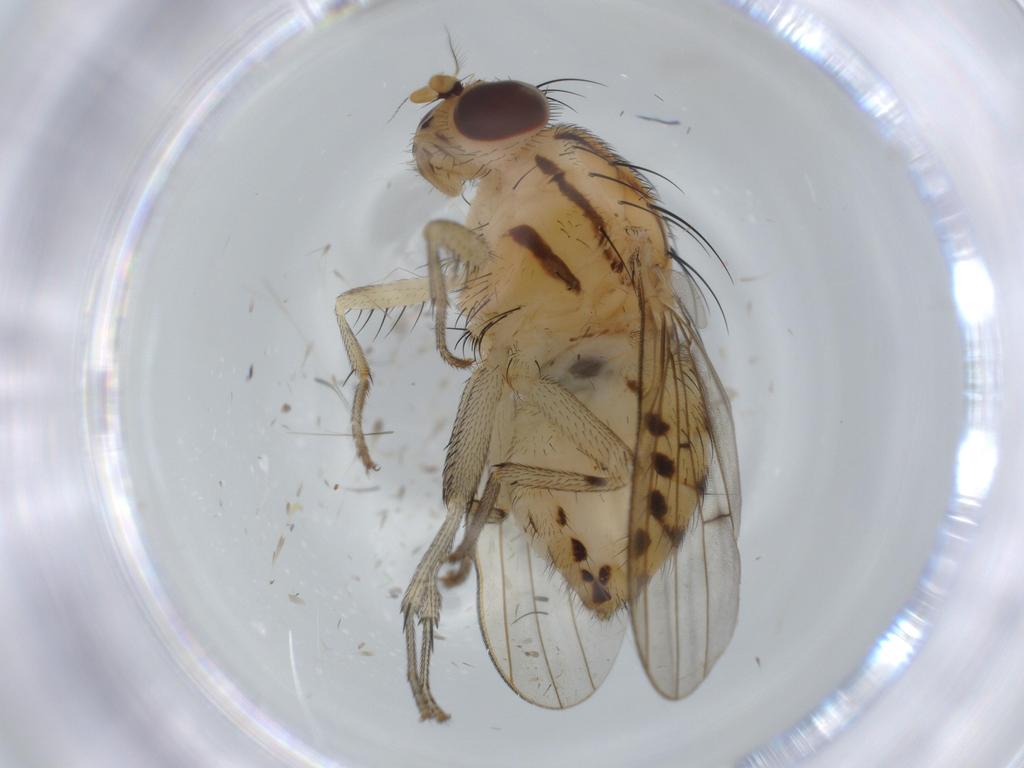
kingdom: Animalia
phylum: Arthropoda
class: Insecta
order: Diptera
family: Lauxaniidae
